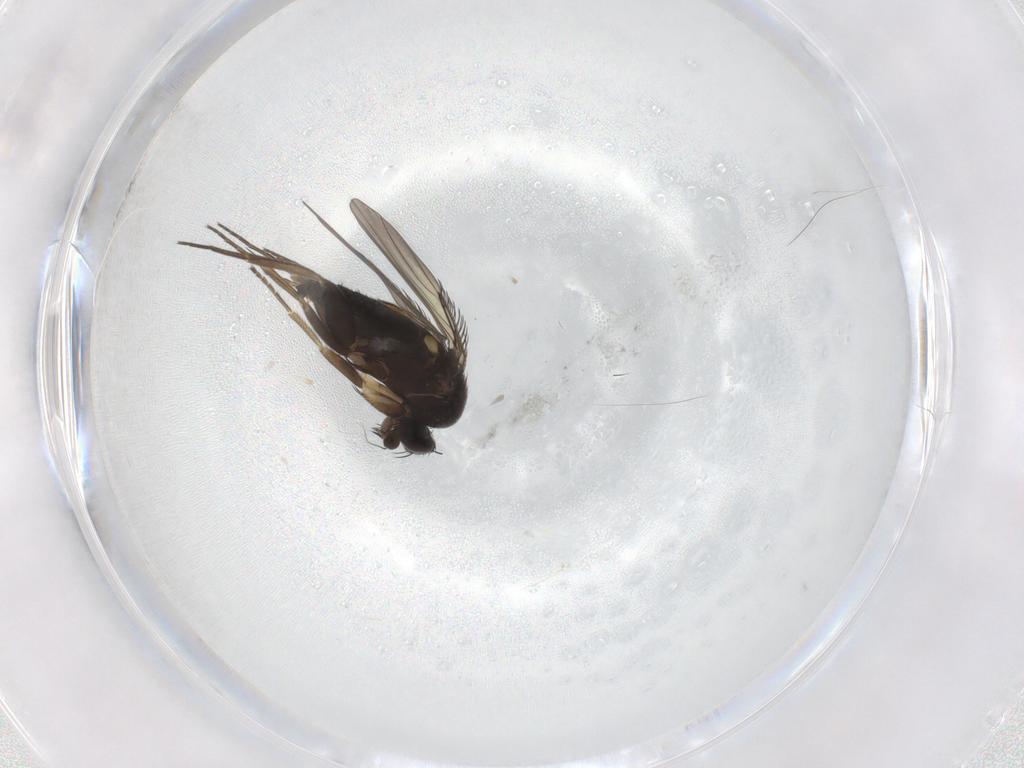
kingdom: Animalia
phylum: Arthropoda
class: Insecta
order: Diptera
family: Phoridae
